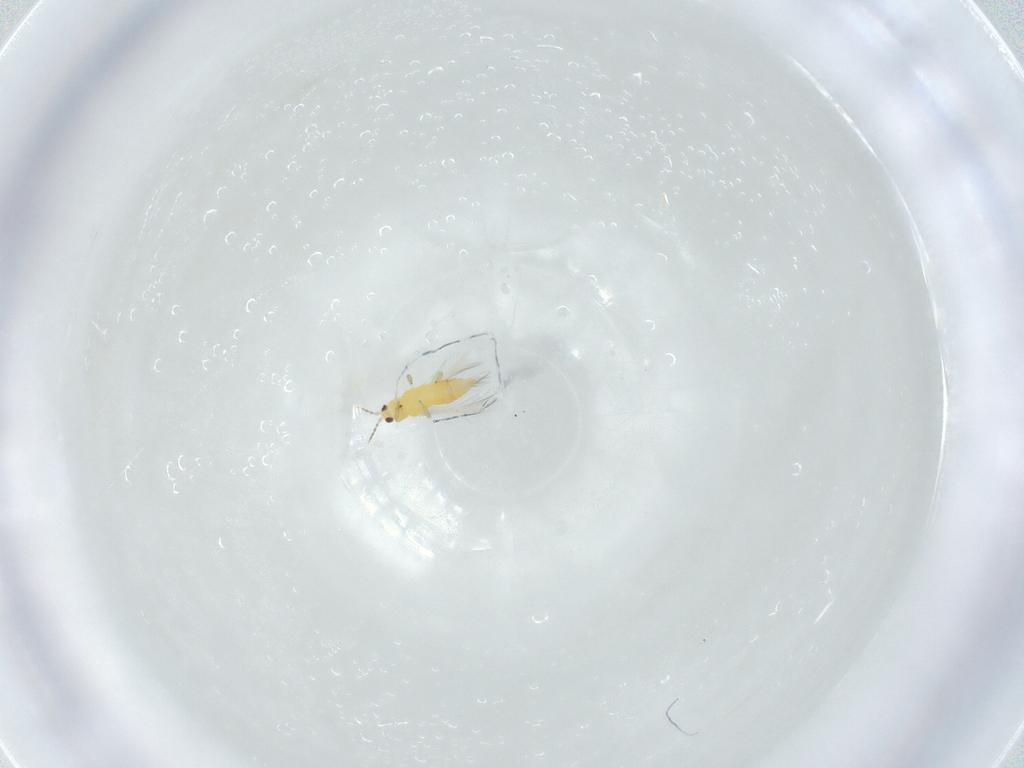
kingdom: Animalia
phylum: Arthropoda
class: Insecta
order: Thysanoptera
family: Thripidae
